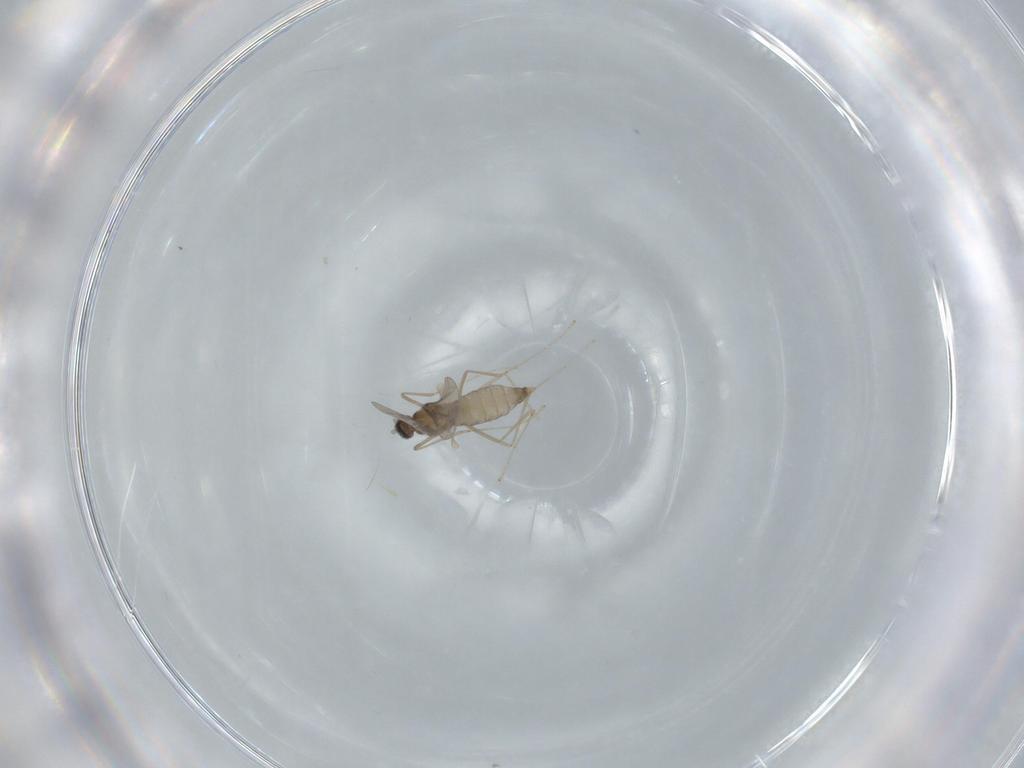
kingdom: Animalia
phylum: Arthropoda
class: Insecta
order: Diptera
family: Cecidomyiidae
